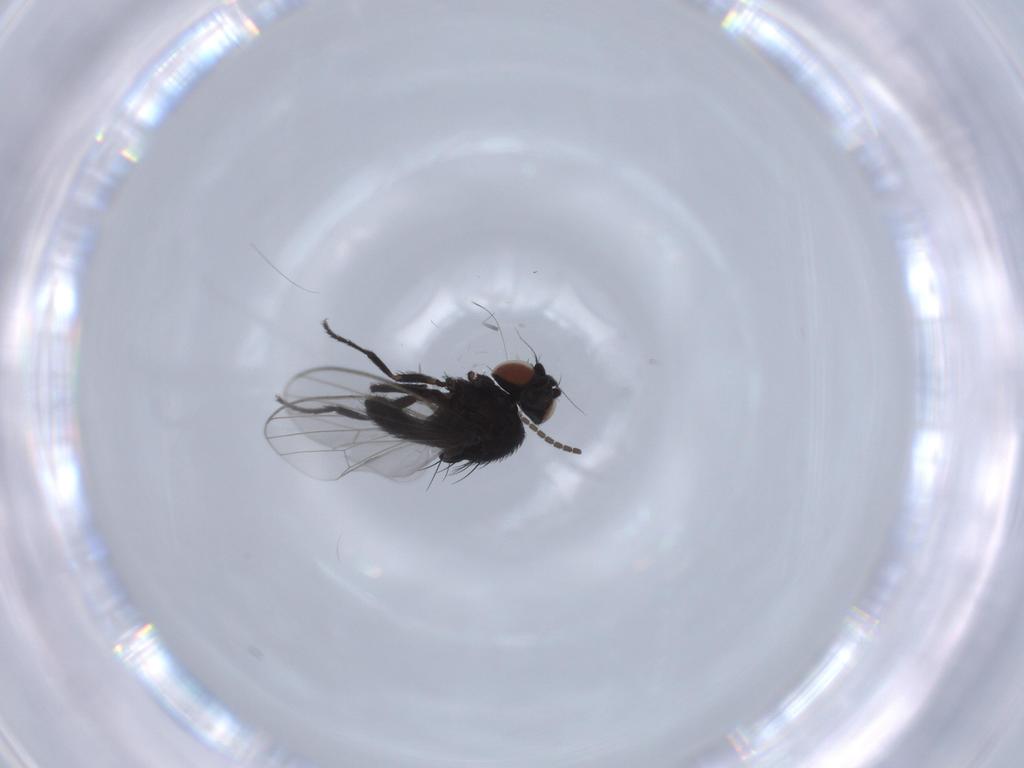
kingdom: Animalia
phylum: Arthropoda
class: Insecta
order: Diptera
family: Milichiidae
